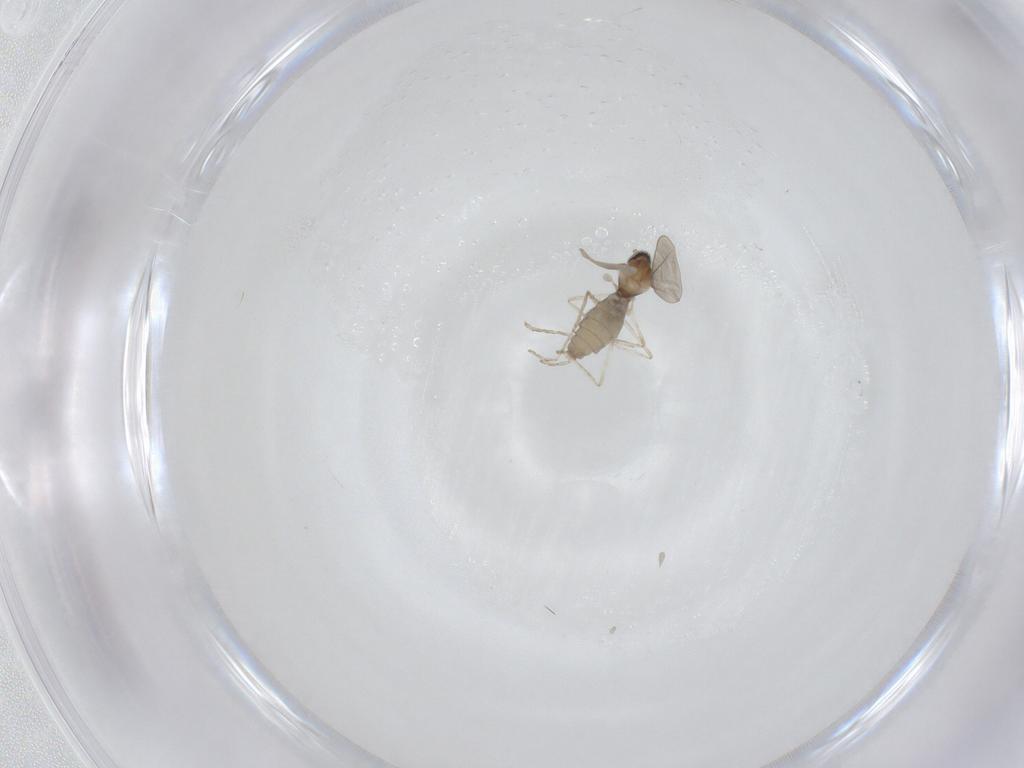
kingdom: Animalia
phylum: Arthropoda
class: Insecta
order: Diptera
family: Cecidomyiidae
